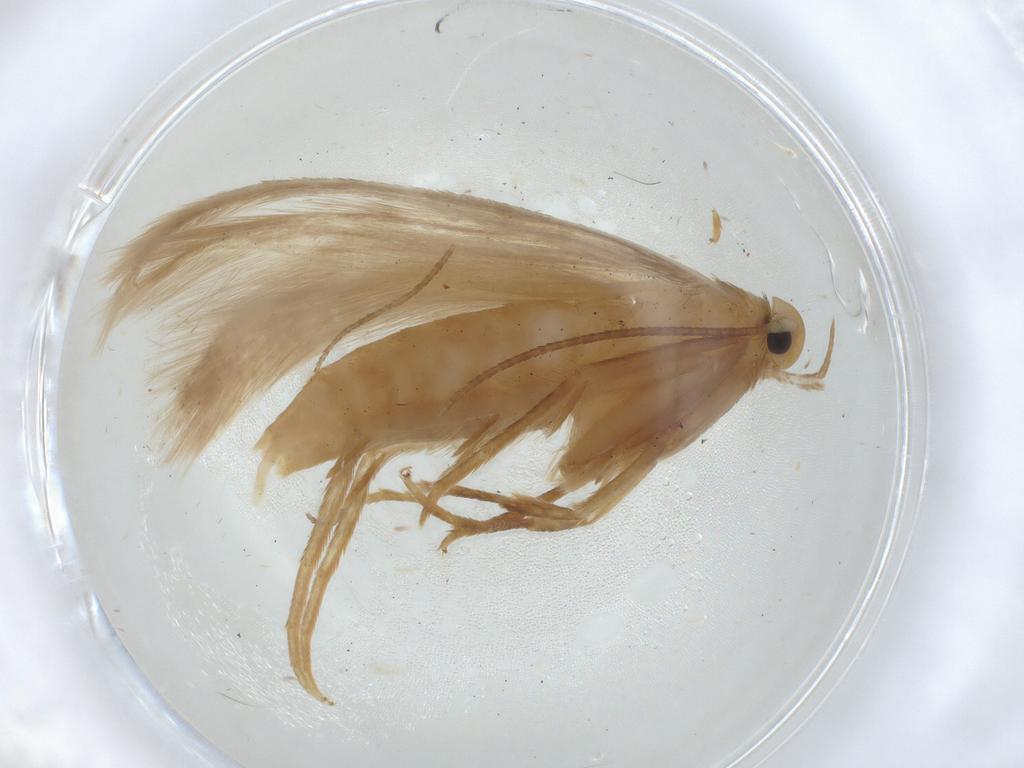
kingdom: Animalia
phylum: Arthropoda
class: Insecta
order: Lepidoptera
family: Oecophoridae
